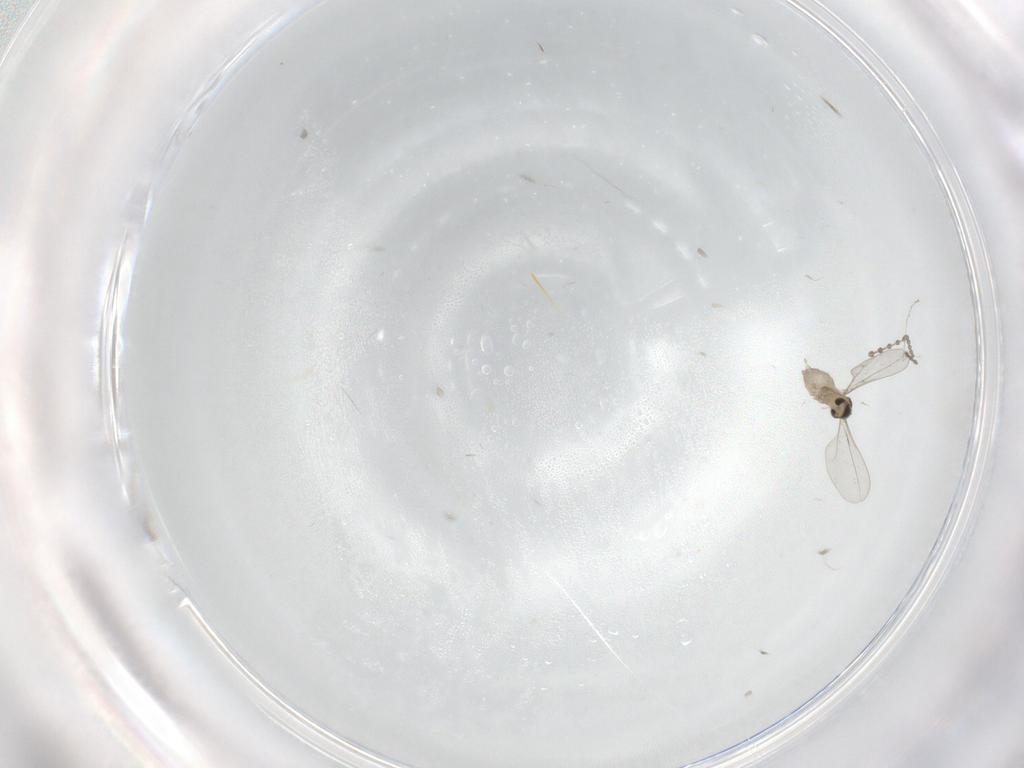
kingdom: Animalia
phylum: Arthropoda
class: Insecta
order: Diptera
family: Cecidomyiidae
